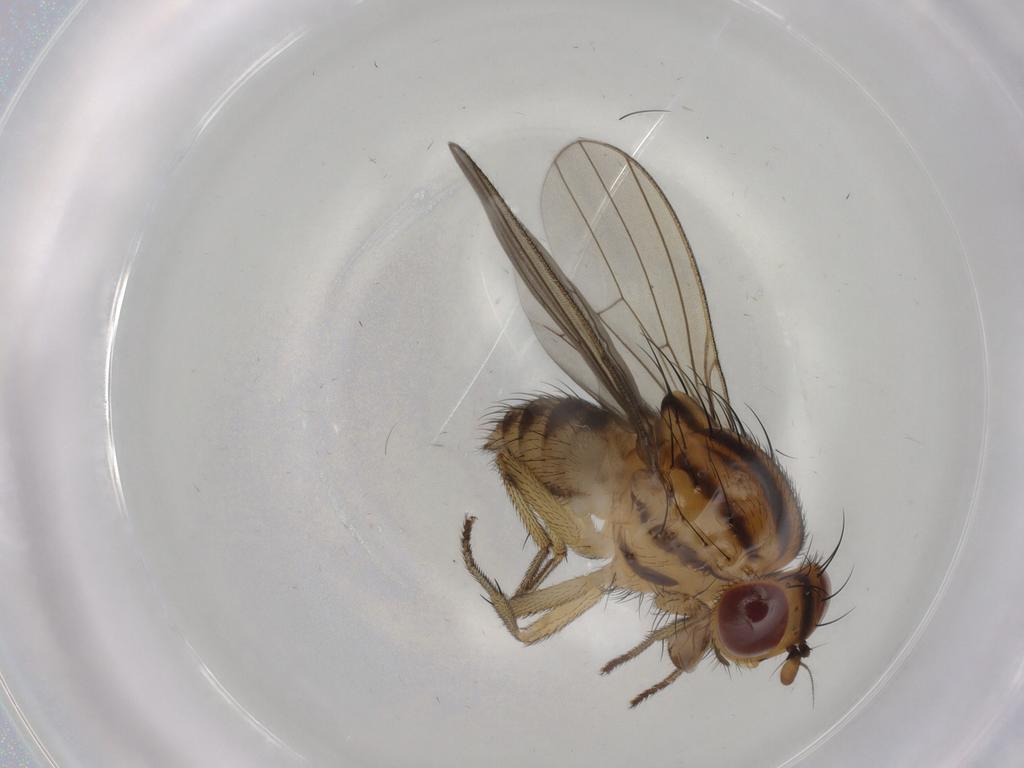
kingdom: Animalia
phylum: Arthropoda
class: Insecta
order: Diptera
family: Lauxaniidae
